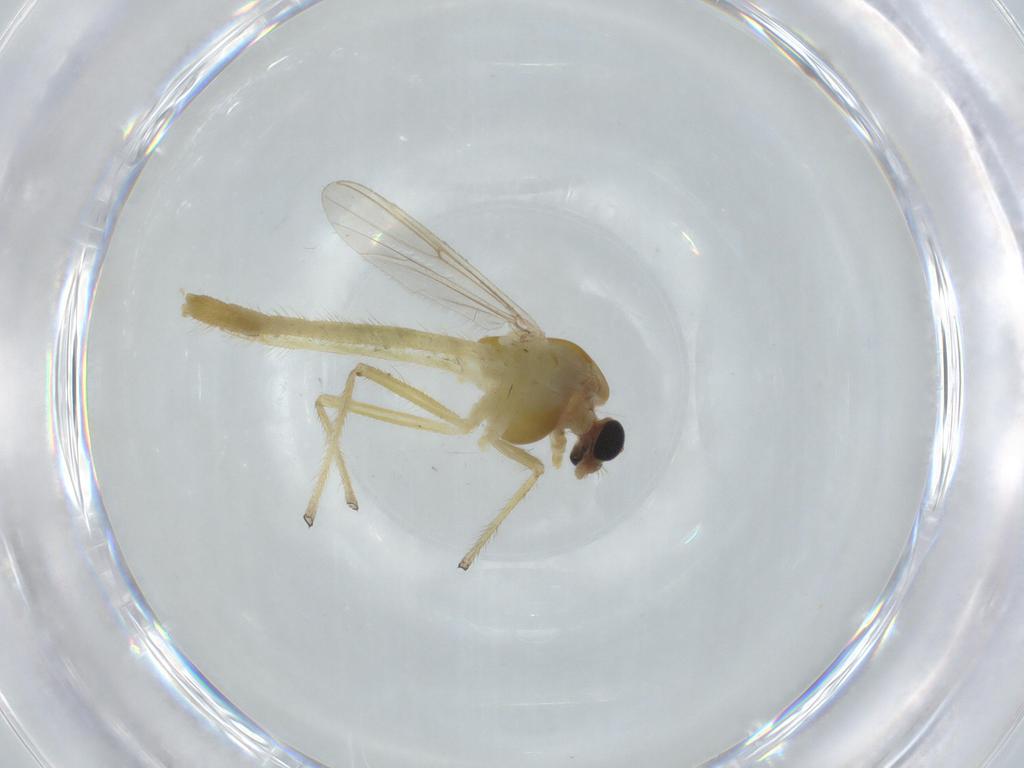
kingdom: Animalia
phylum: Arthropoda
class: Insecta
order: Diptera
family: Chironomidae
